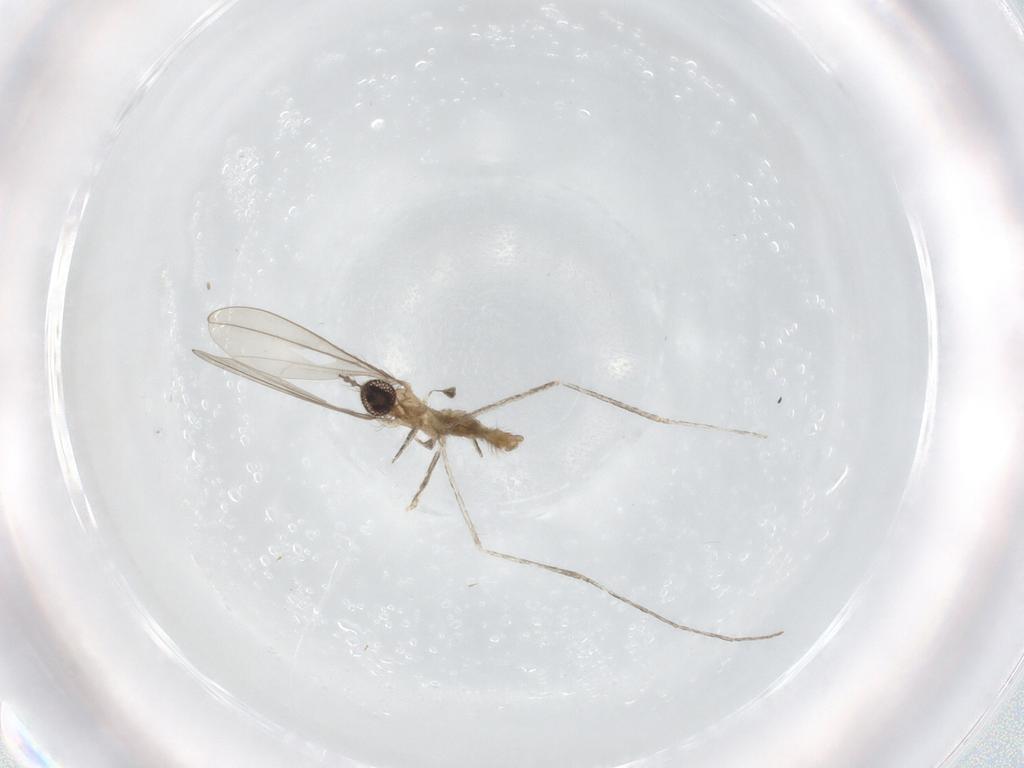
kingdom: Animalia
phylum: Arthropoda
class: Insecta
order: Diptera
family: Cecidomyiidae
